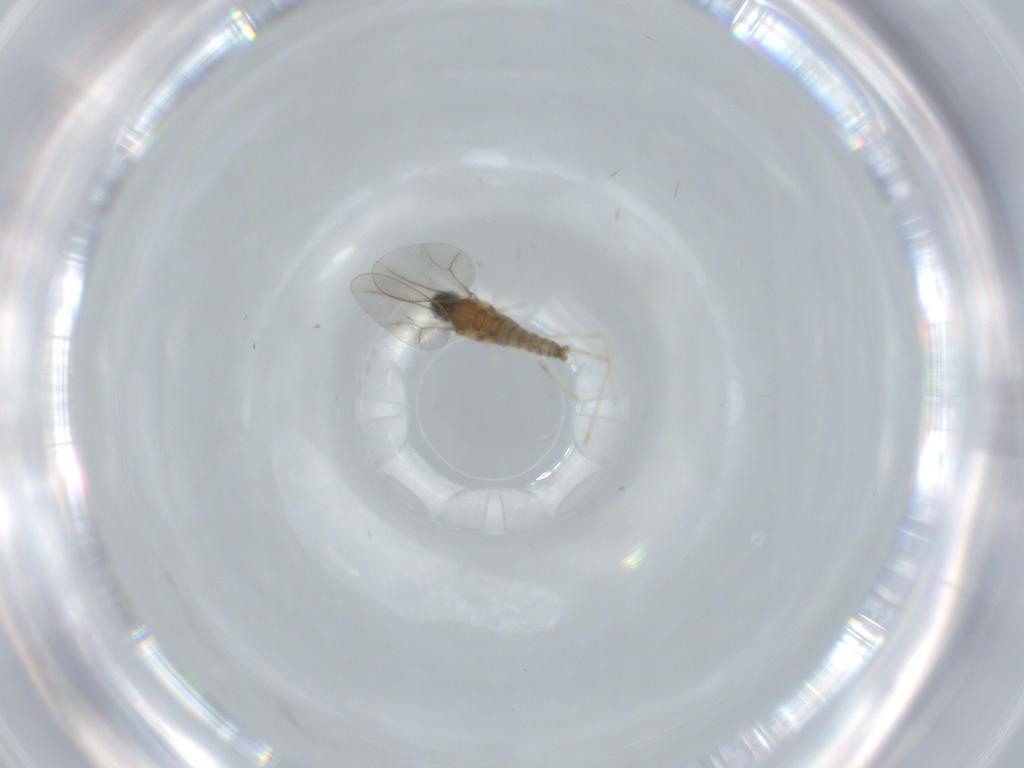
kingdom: Animalia
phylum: Arthropoda
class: Insecta
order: Diptera
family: Cecidomyiidae
